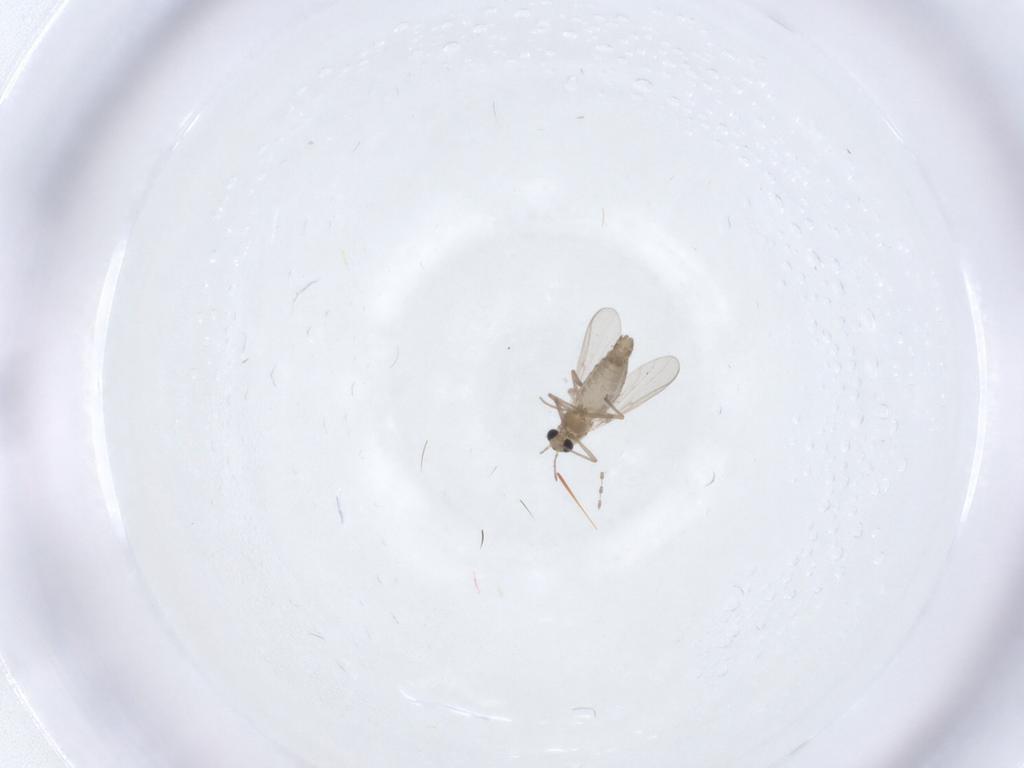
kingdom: Animalia
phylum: Arthropoda
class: Insecta
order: Diptera
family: Chironomidae
